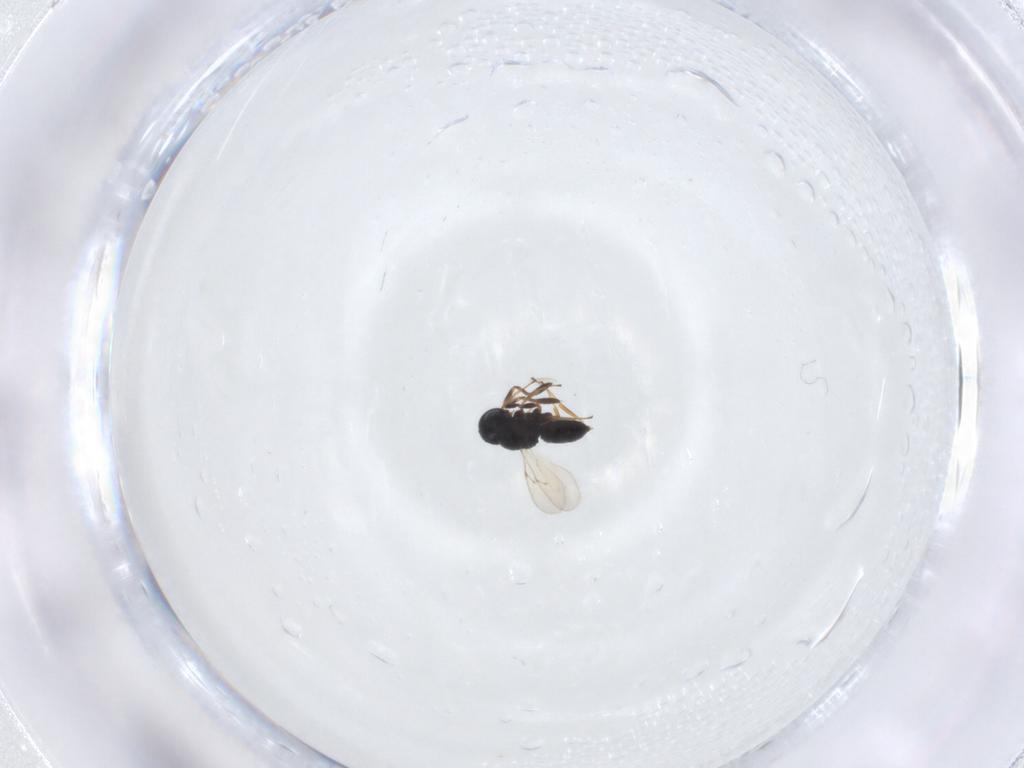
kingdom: Animalia
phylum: Arthropoda
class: Insecta
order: Hymenoptera
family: Scelionidae
